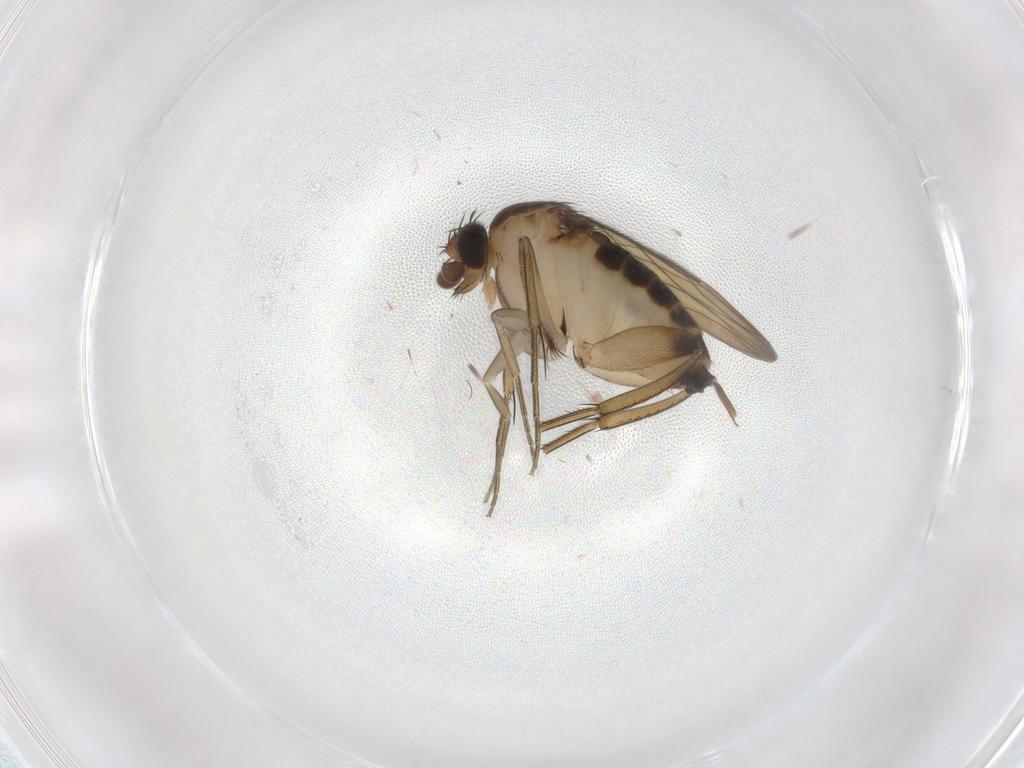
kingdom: Animalia
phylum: Arthropoda
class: Insecta
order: Diptera
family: Phoridae
